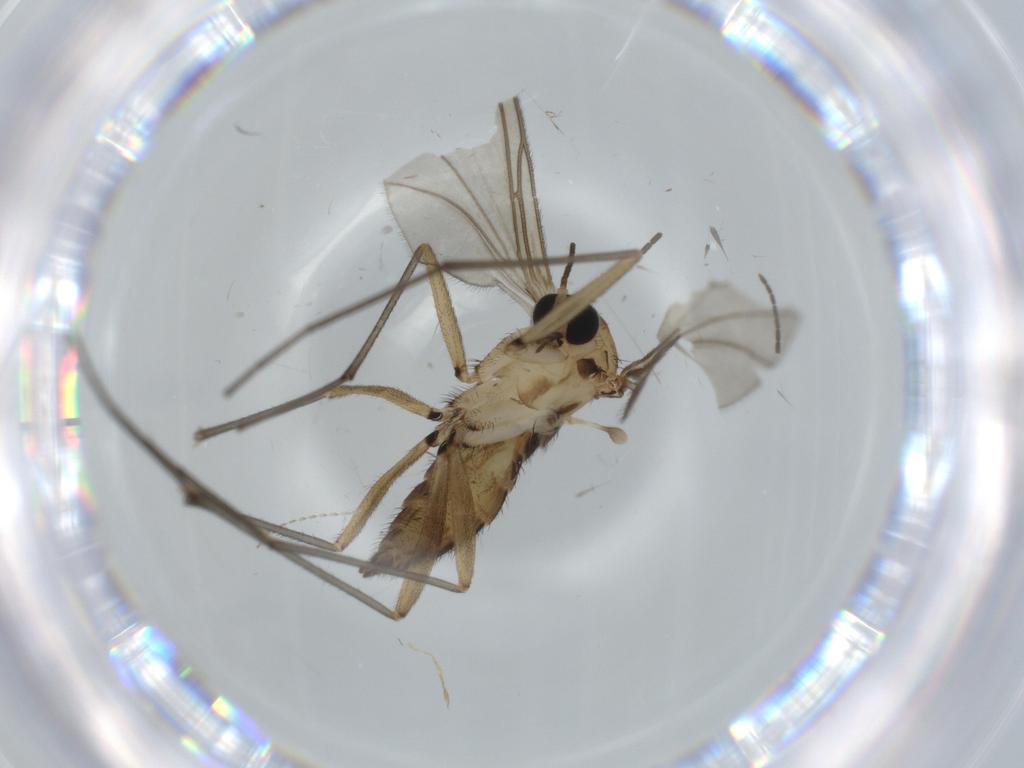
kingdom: Animalia
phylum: Arthropoda
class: Insecta
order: Diptera
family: Sciaridae
